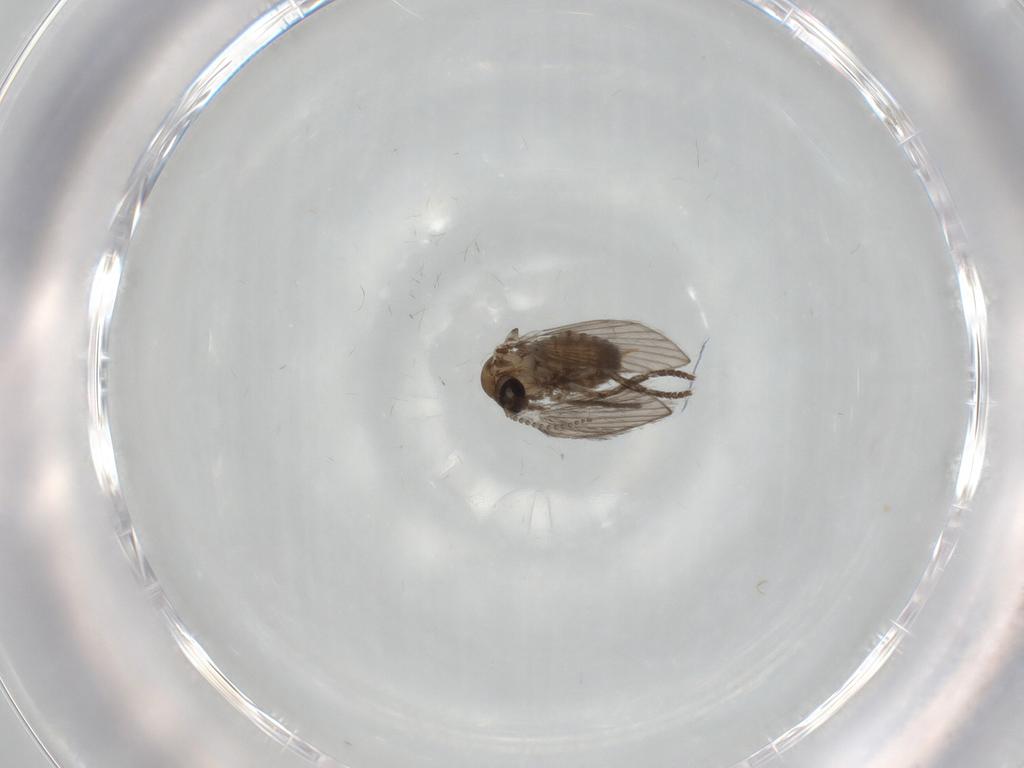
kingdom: Animalia
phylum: Arthropoda
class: Insecta
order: Diptera
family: Psychodidae
